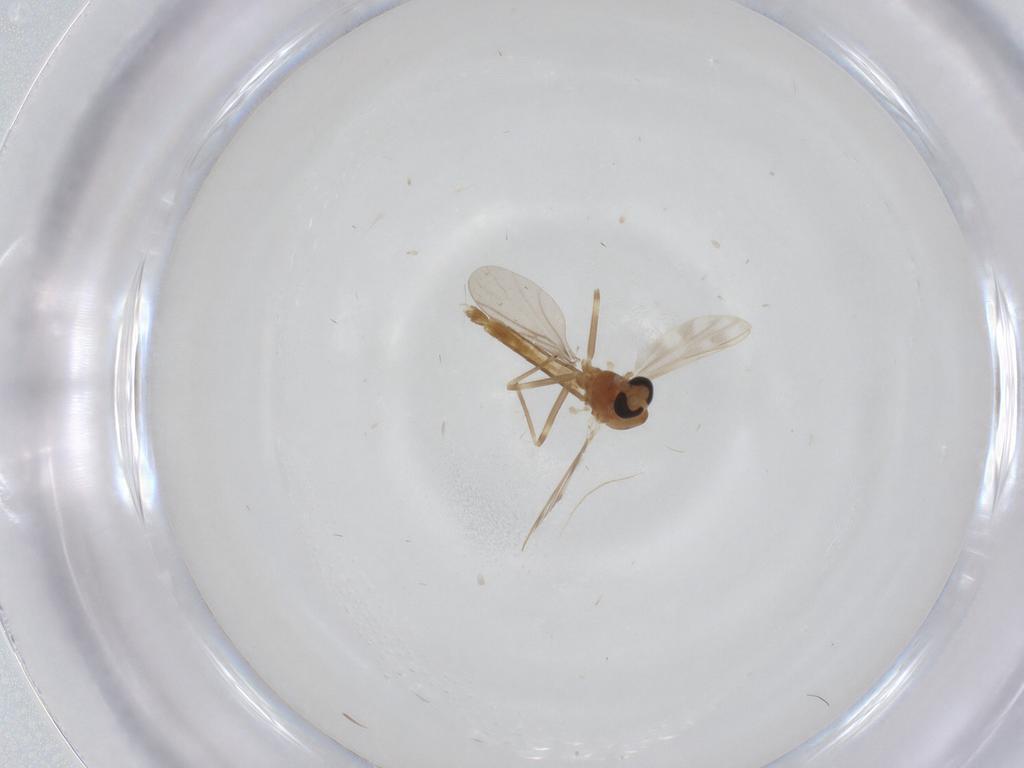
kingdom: Animalia
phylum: Arthropoda
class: Insecta
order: Diptera
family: Chironomidae
